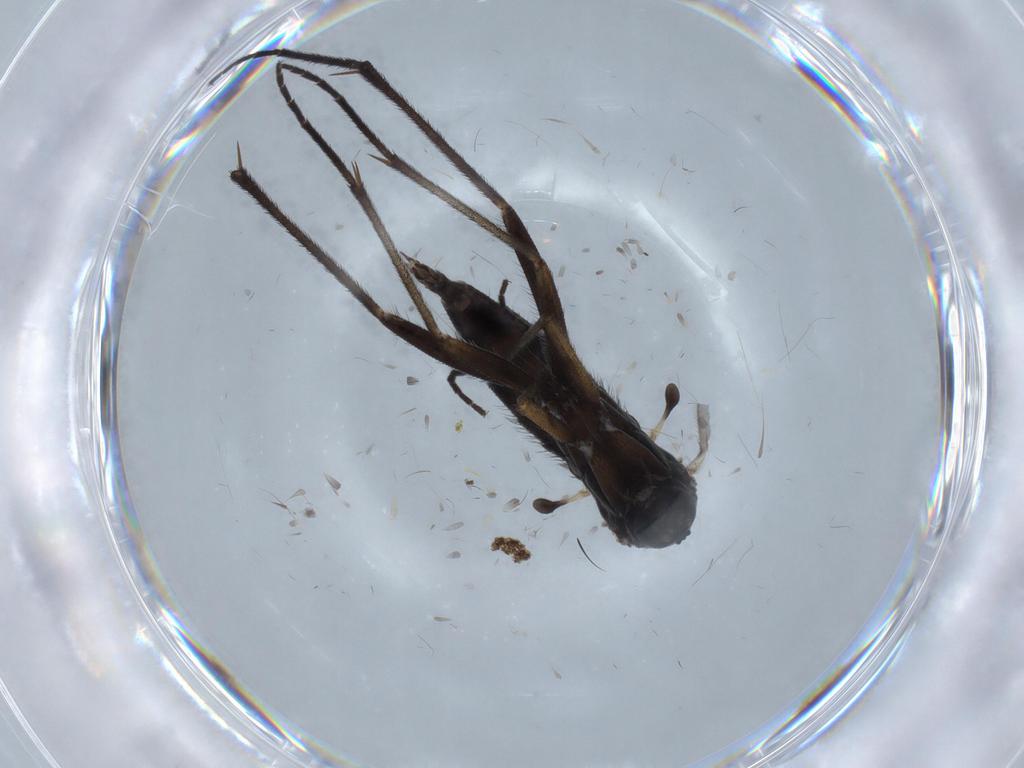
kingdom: Animalia
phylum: Arthropoda
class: Insecta
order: Diptera
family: Sciaridae
